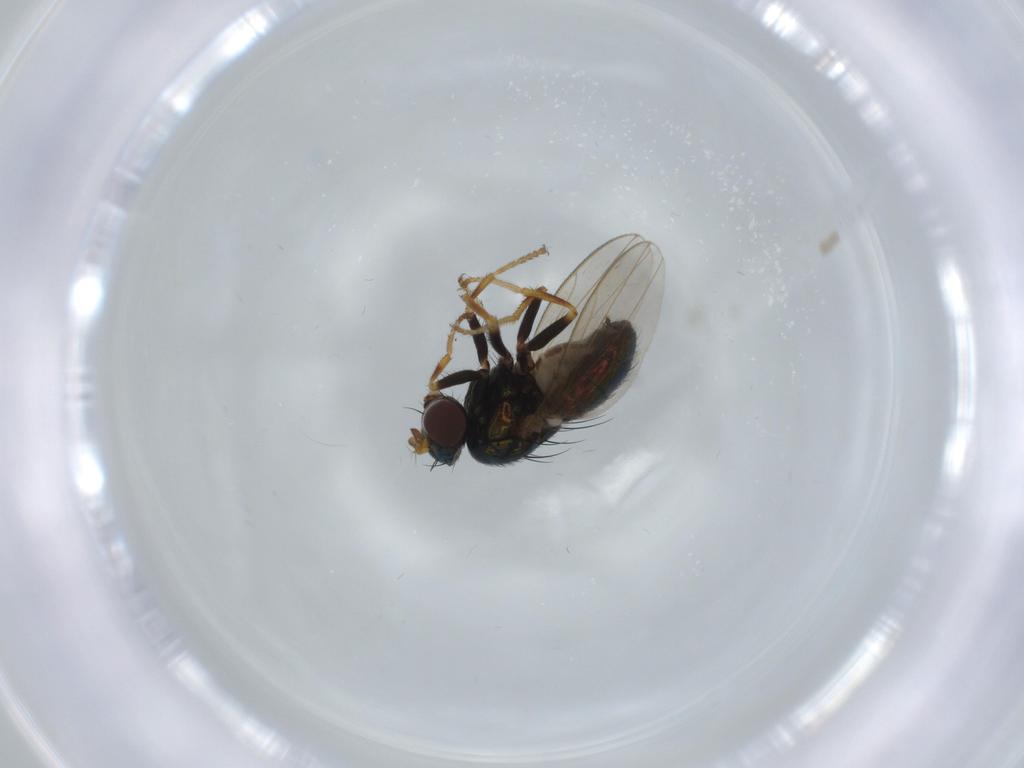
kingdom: Animalia
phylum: Arthropoda
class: Insecta
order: Diptera
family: Ephydridae
